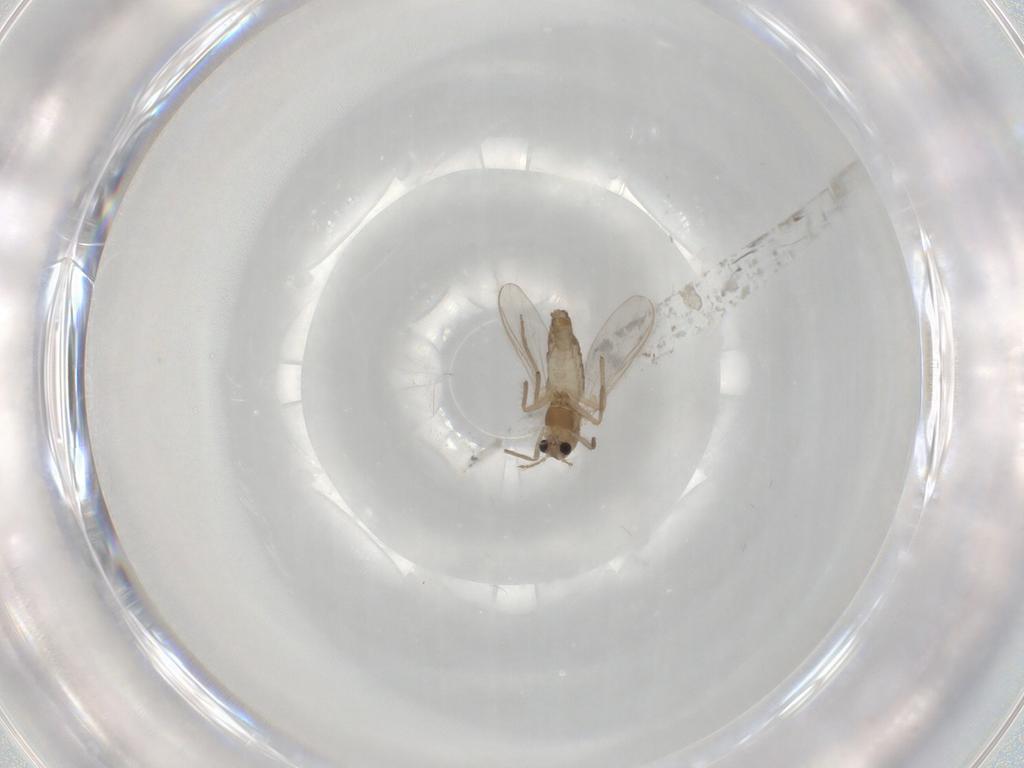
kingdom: Animalia
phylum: Arthropoda
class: Insecta
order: Diptera
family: Chironomidae
